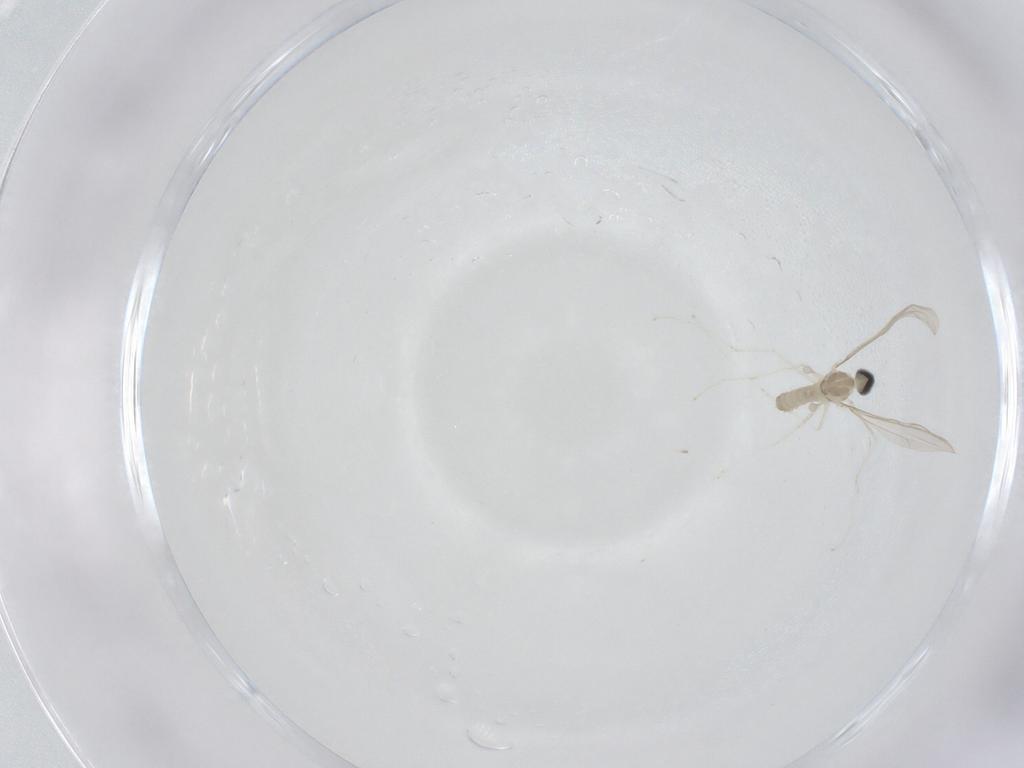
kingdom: Animalia
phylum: Arthropoda
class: Insecta
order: Diptera
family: Cecidomyiidae
